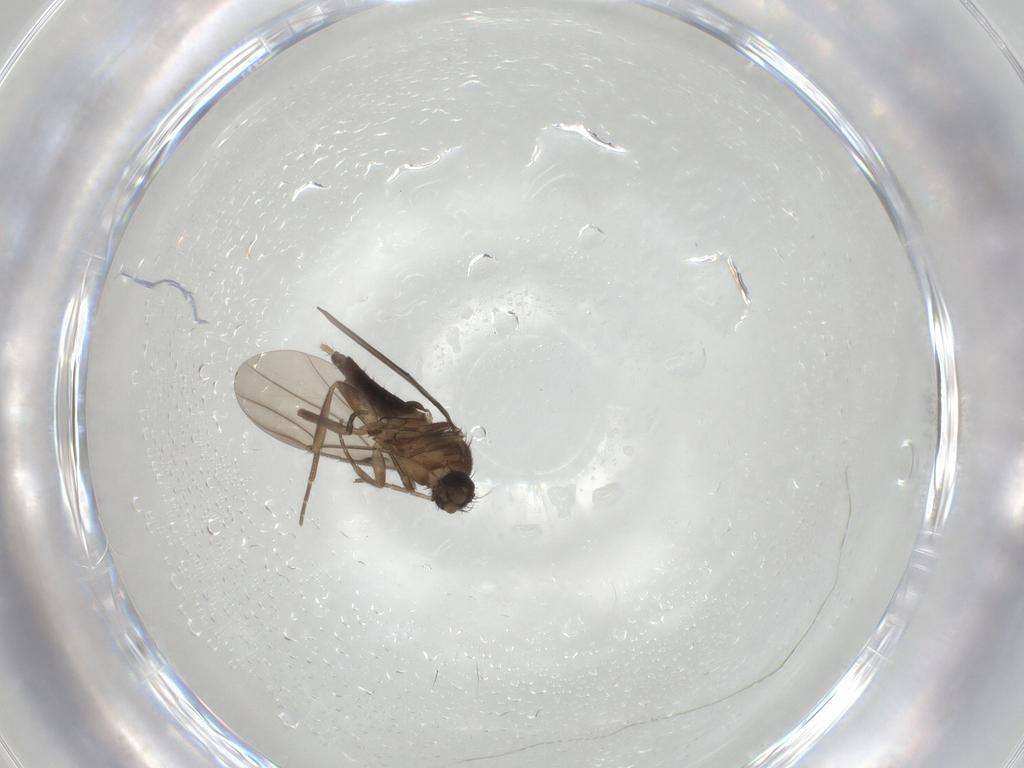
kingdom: Animalia
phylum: Arthropoda
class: Insecta
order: Diptera
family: Phoridae
